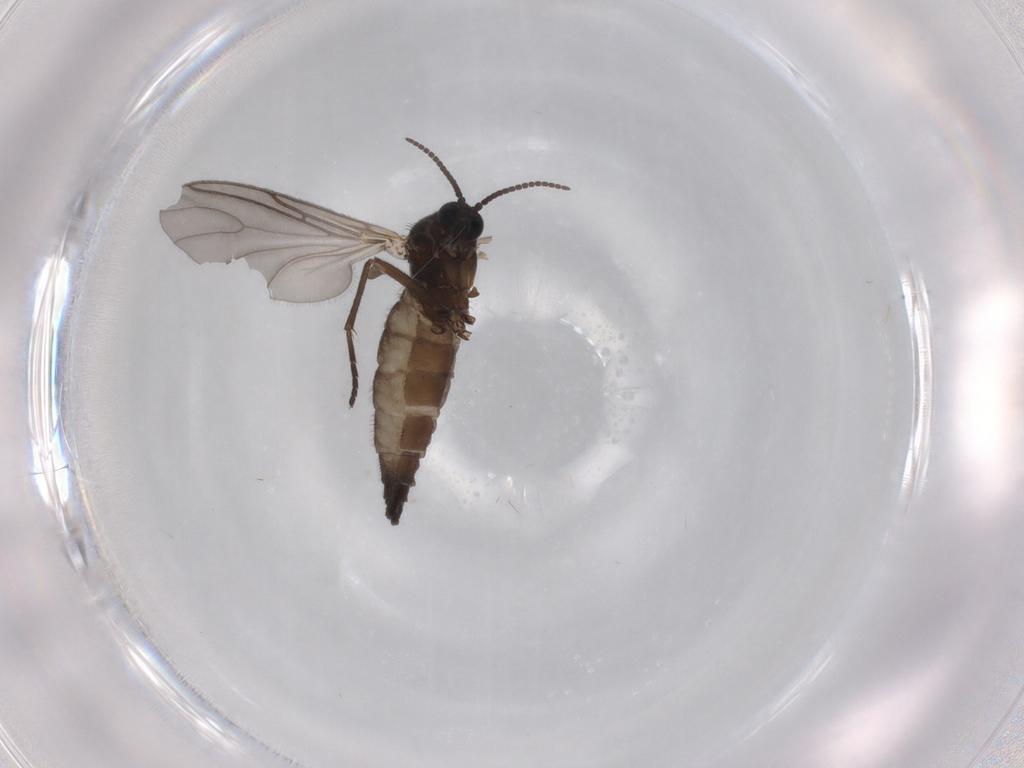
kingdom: Animalia
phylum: Arthropoda
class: Insecta
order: Diptera
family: Sciaridae
